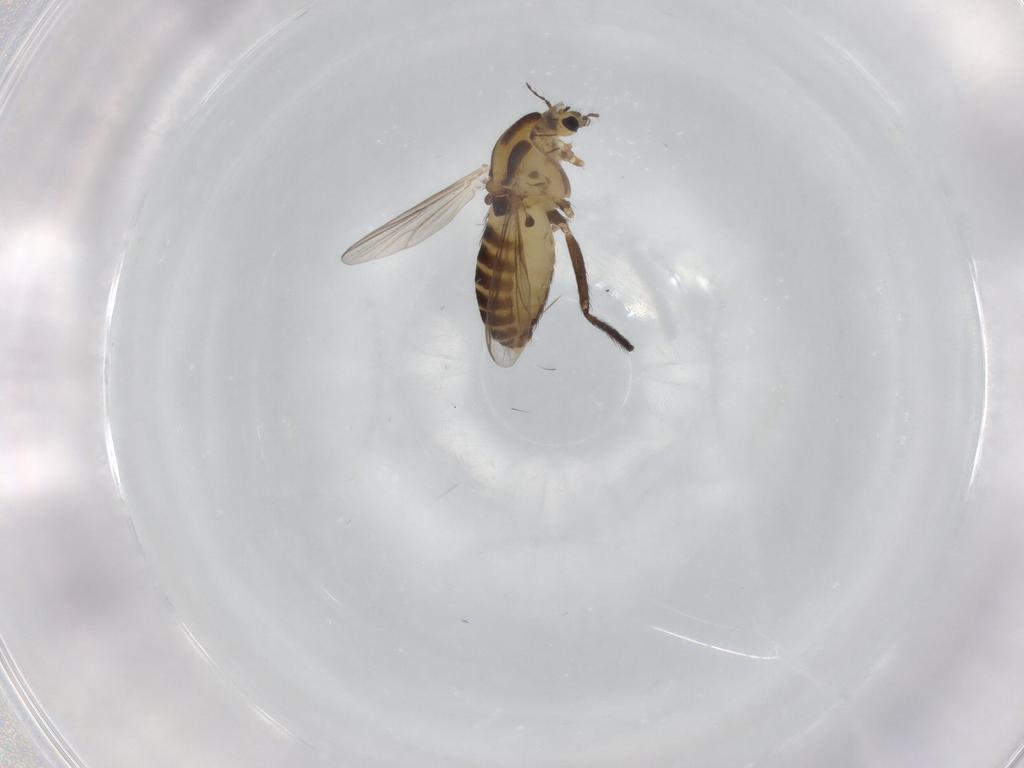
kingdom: Animalia
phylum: Arthropoda
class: Insecta
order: Diptera
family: Chironomidae
